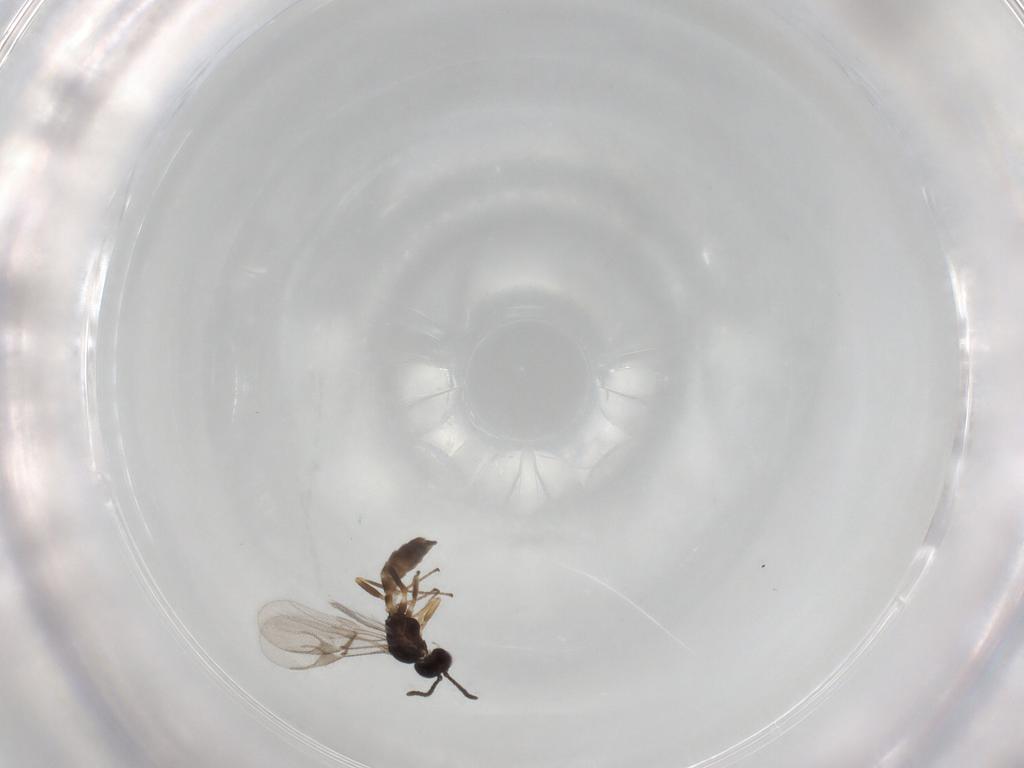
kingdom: Animalia
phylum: Arthropoda
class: Insecta
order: Hymenoptera
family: Braconidae
